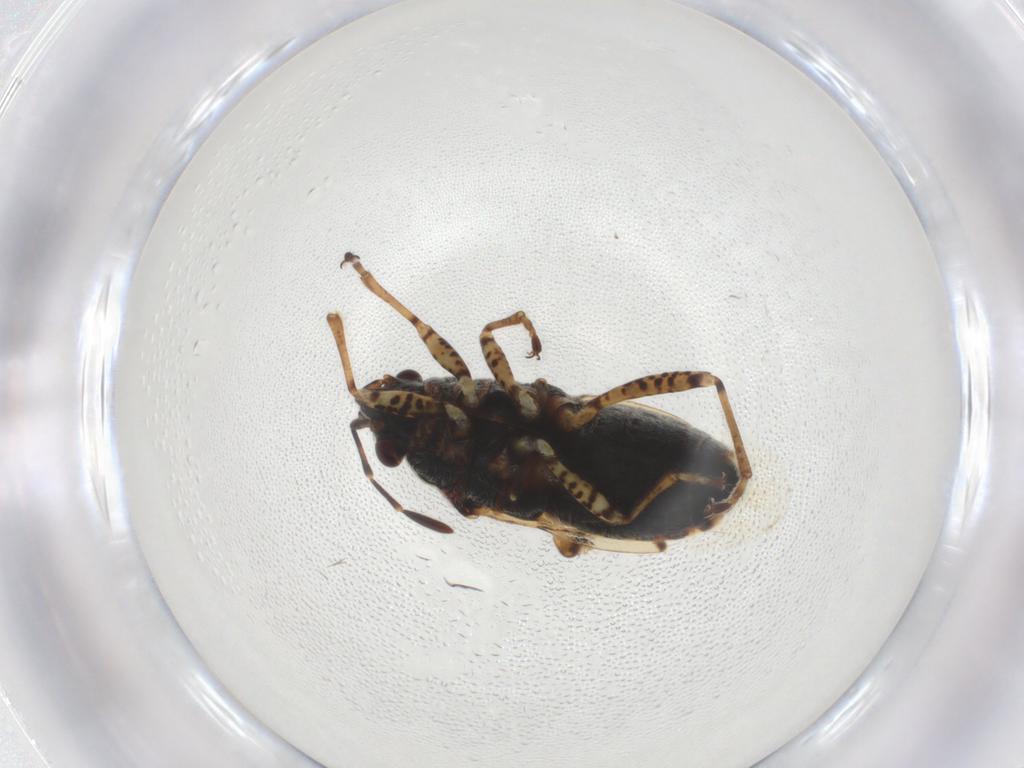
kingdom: Animalia
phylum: Arthropoda
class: Insecta
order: Hemiptera
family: Lygaeidae
